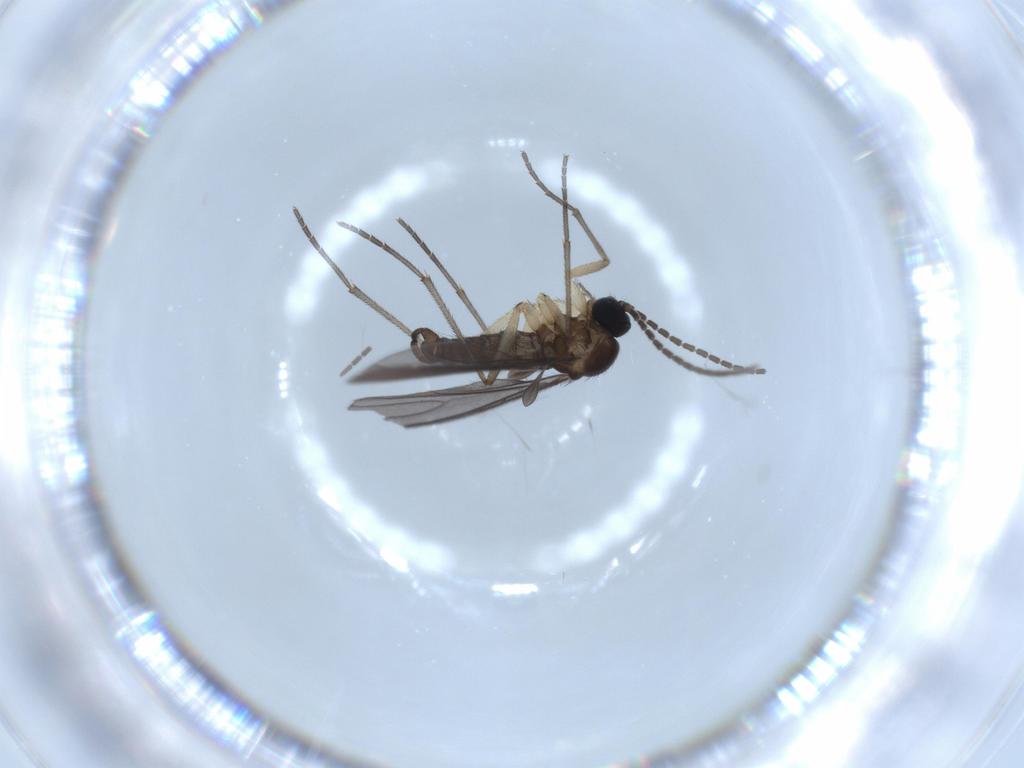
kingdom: Animalia
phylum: Arthropoda
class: Insecta
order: Diptera
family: Sciaridae
